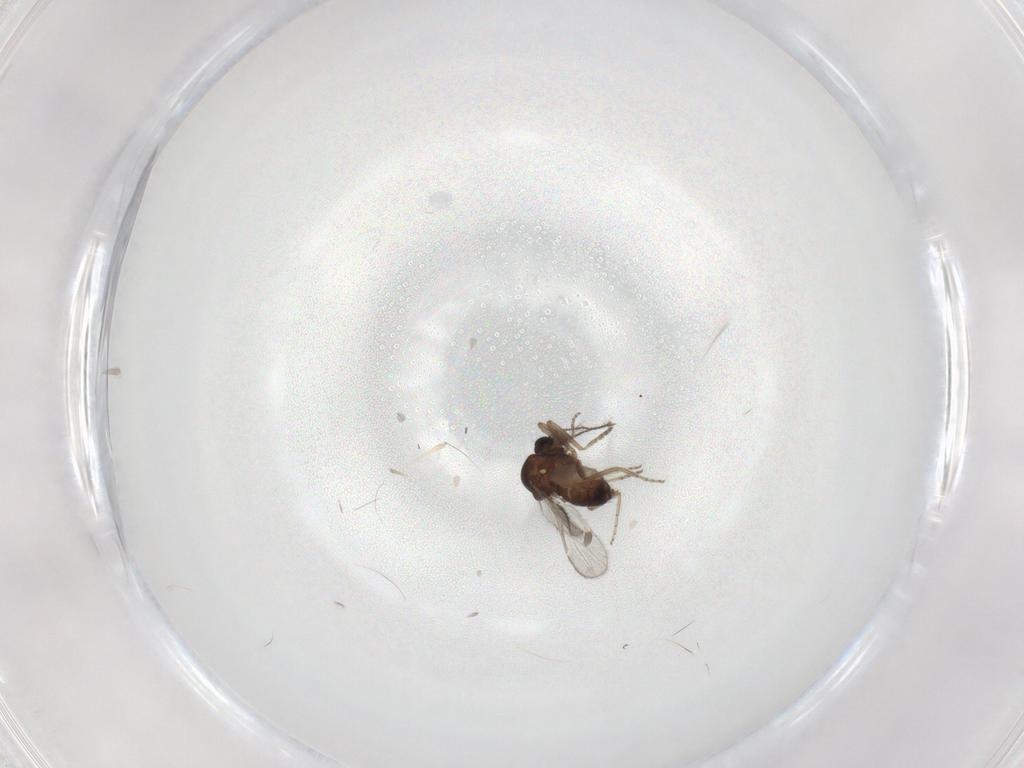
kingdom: Animalia
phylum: Arthropoda
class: Insecta
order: Diptera
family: Ceratopogonidae
